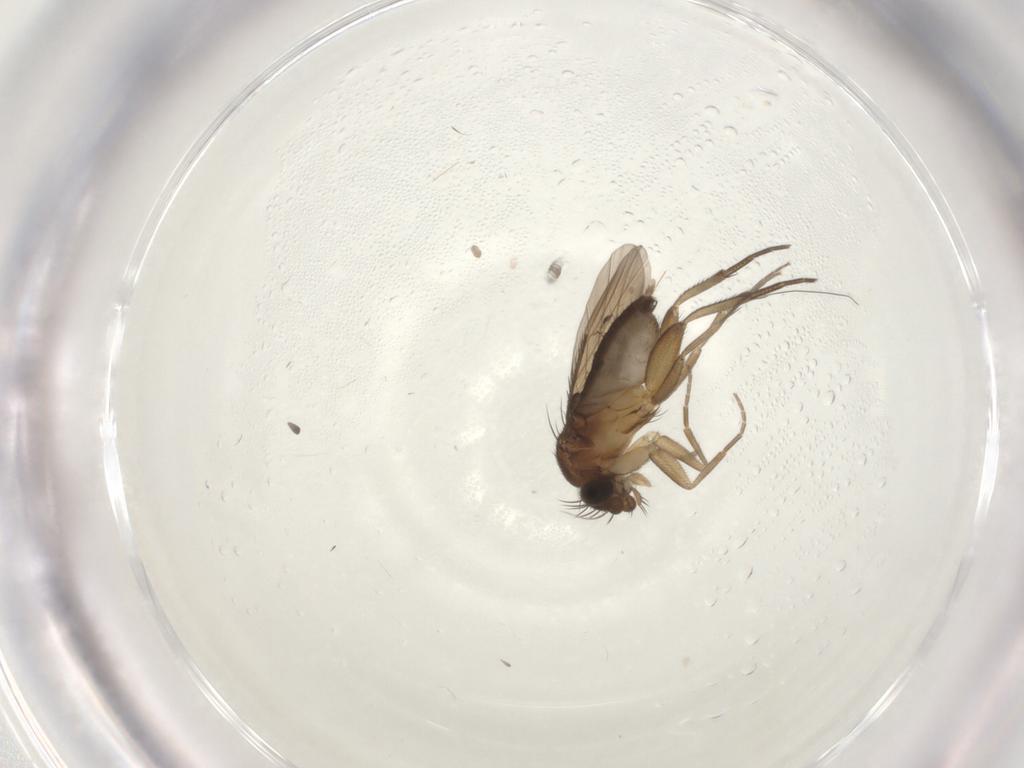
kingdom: Animalia
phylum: Arthropoda
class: Insecta
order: Diptera
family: Phoridae
